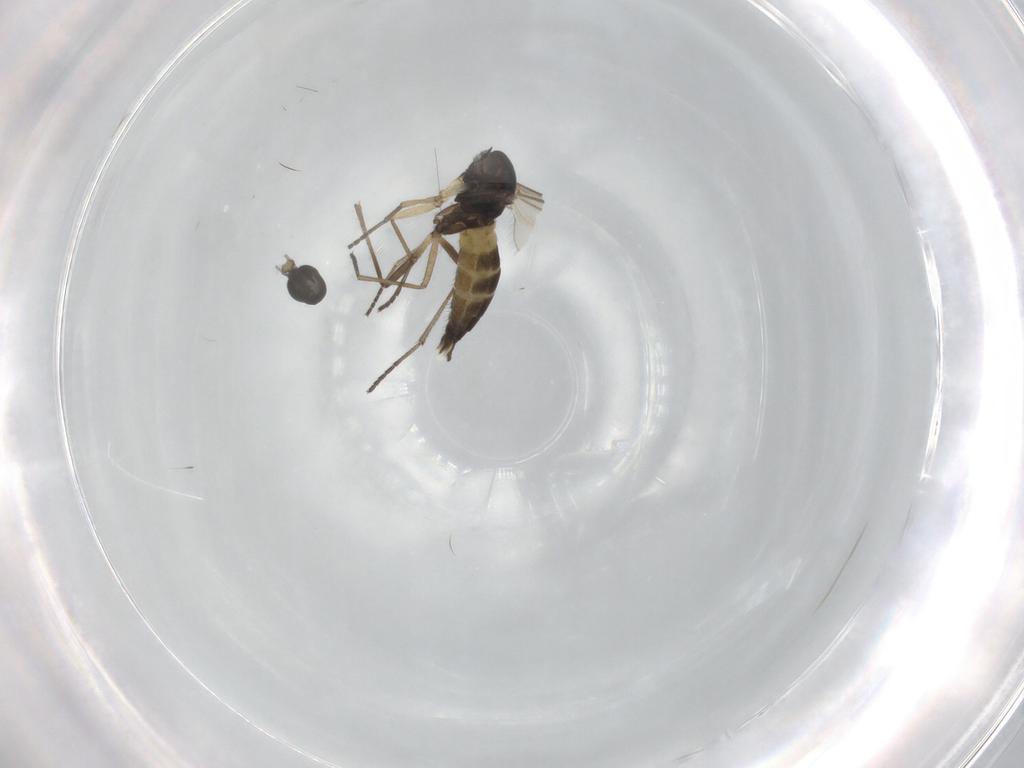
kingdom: Animalia
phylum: Arthropoda
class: Insecta
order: Diptera
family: Sciaridae
